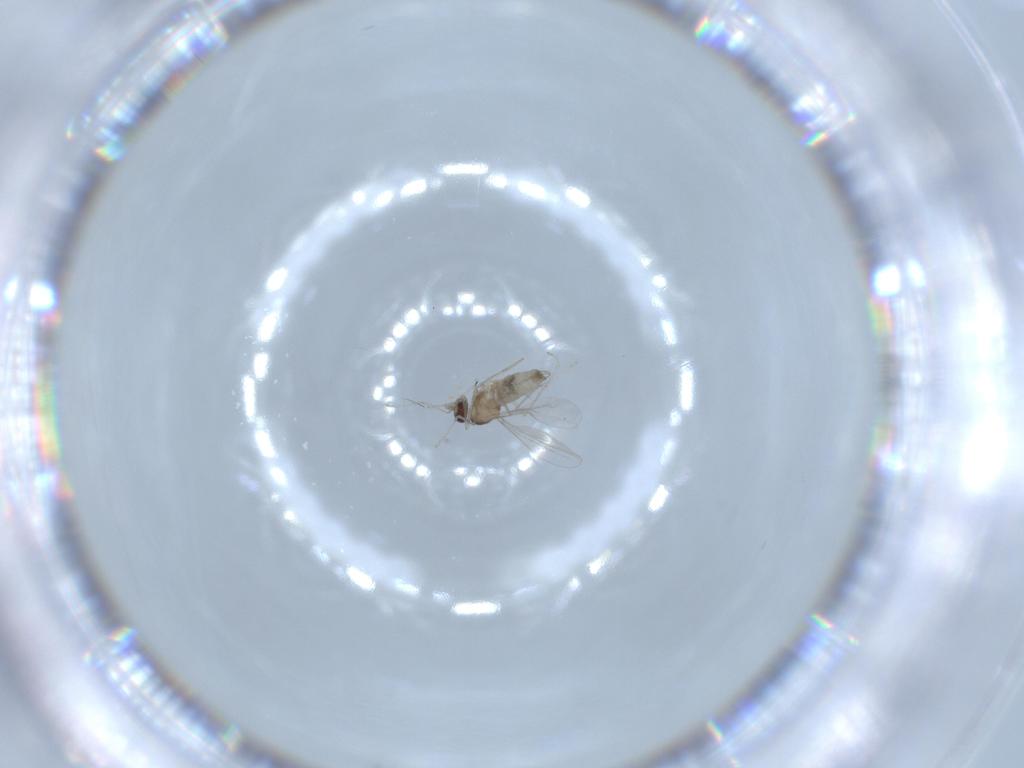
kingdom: Animalia
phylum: Arthropoda
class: Insecta
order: Diptera
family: Cecidomyiidae
